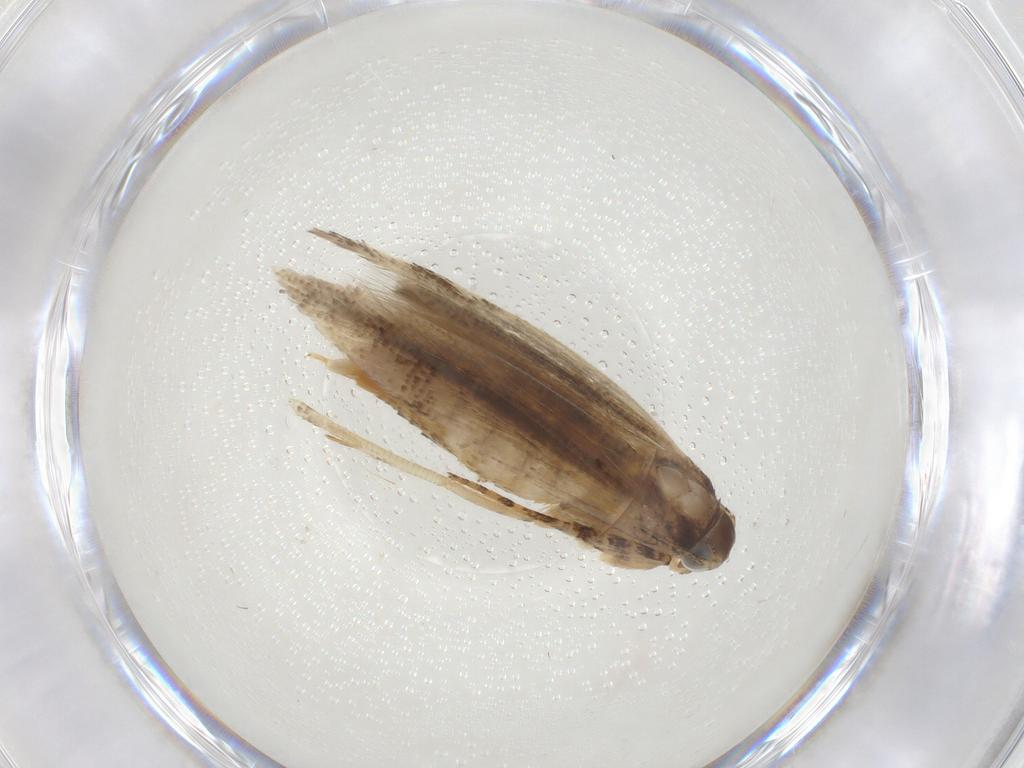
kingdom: Animalia
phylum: Arthropoda
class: Insecta
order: Lepidoptera
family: Gelechiidae
